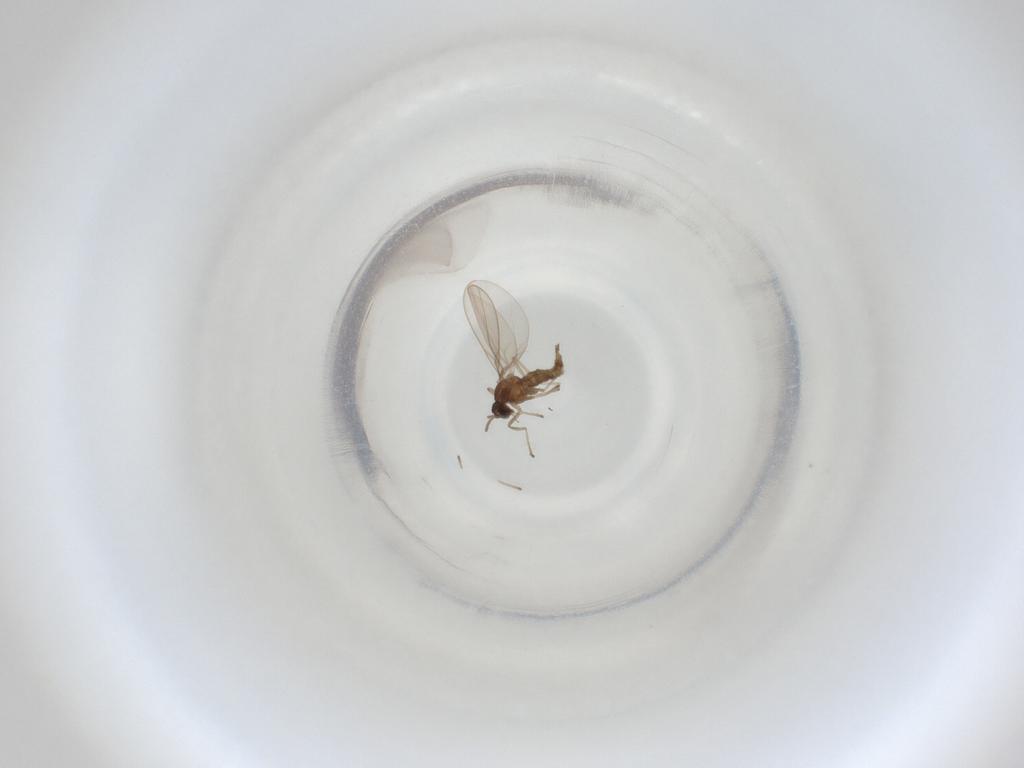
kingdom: Animalia
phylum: Arthropoda
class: Insecta
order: Diptera
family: Cecidomyiidae
